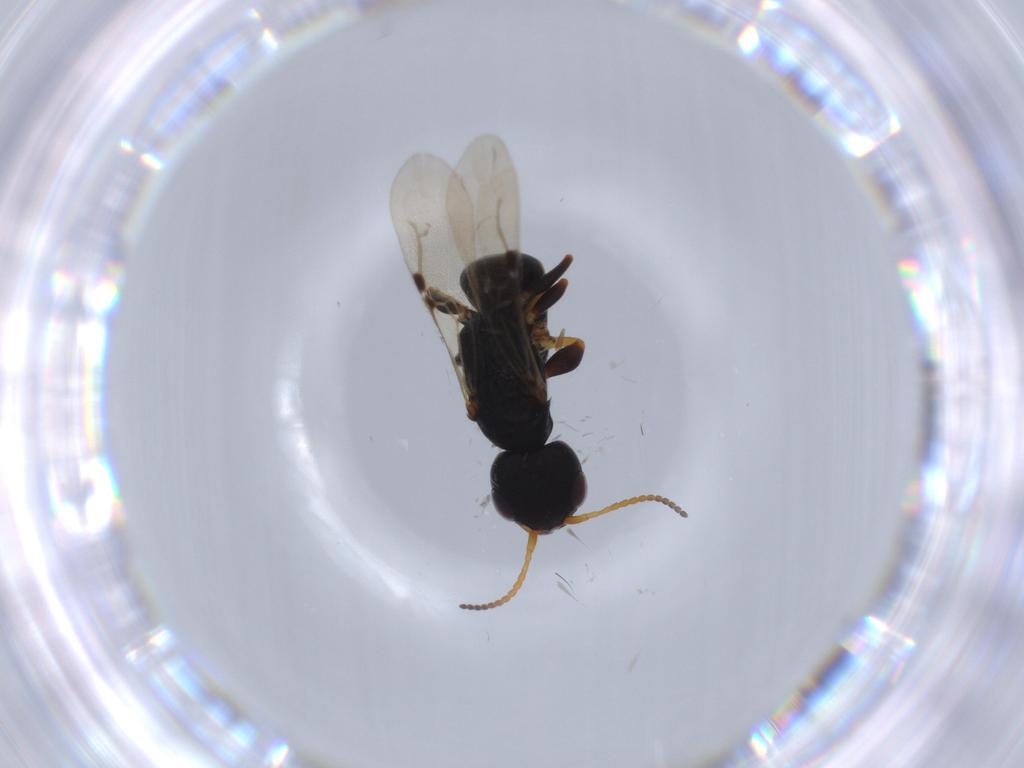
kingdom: Animalia
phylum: Arthropoda
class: Insecta
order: Hymenoptera
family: Bethylidae
